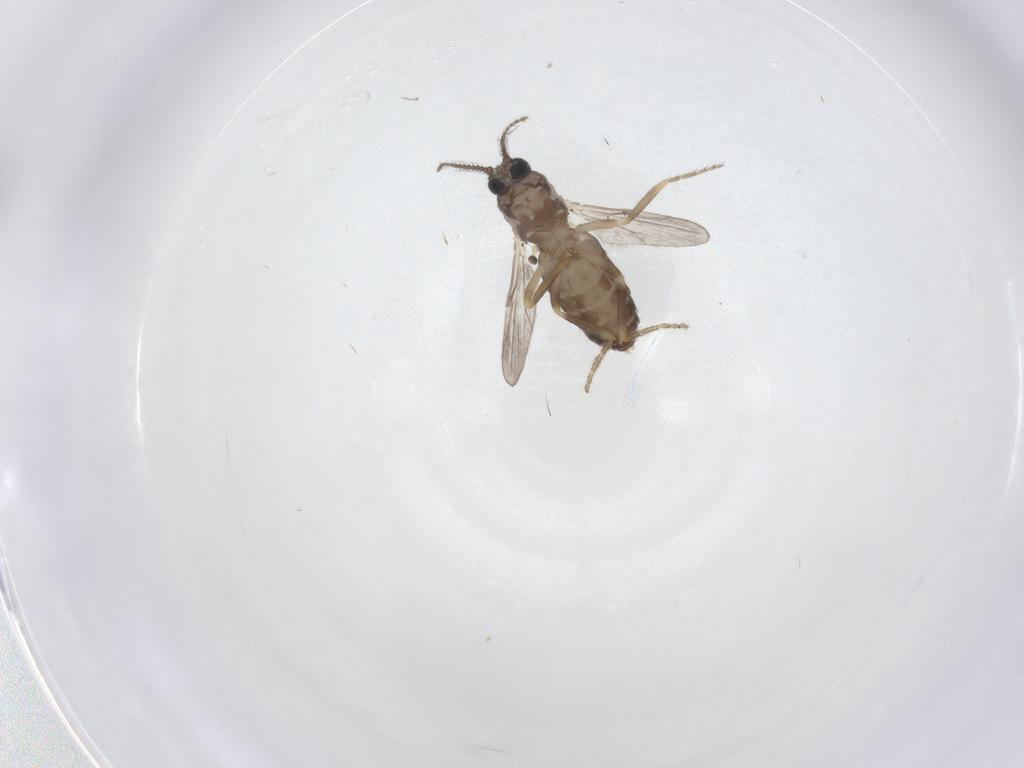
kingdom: Animalia
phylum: Arthropoda
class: Insecta
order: Diptera
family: Ceratopogonidae
